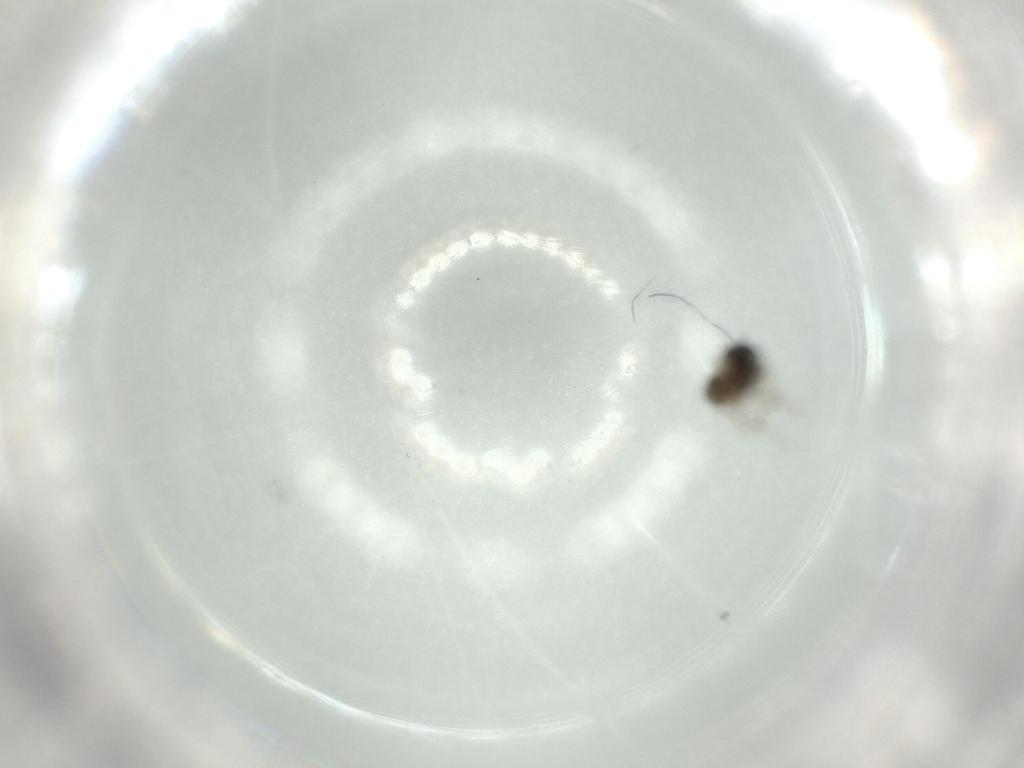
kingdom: Animalia
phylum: Arthropoda
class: Insecta
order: Diptera
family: Ceratopogonidae
